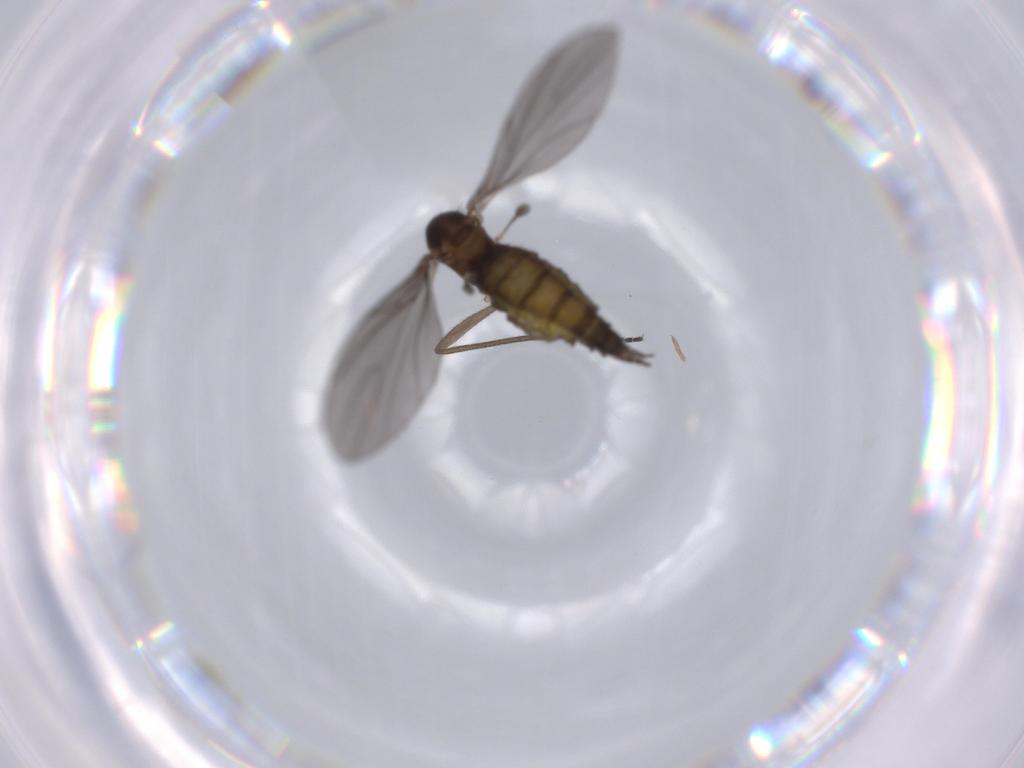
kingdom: Animalia
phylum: Arthropoda
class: Insecta
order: Diptera
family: Sciaridae
